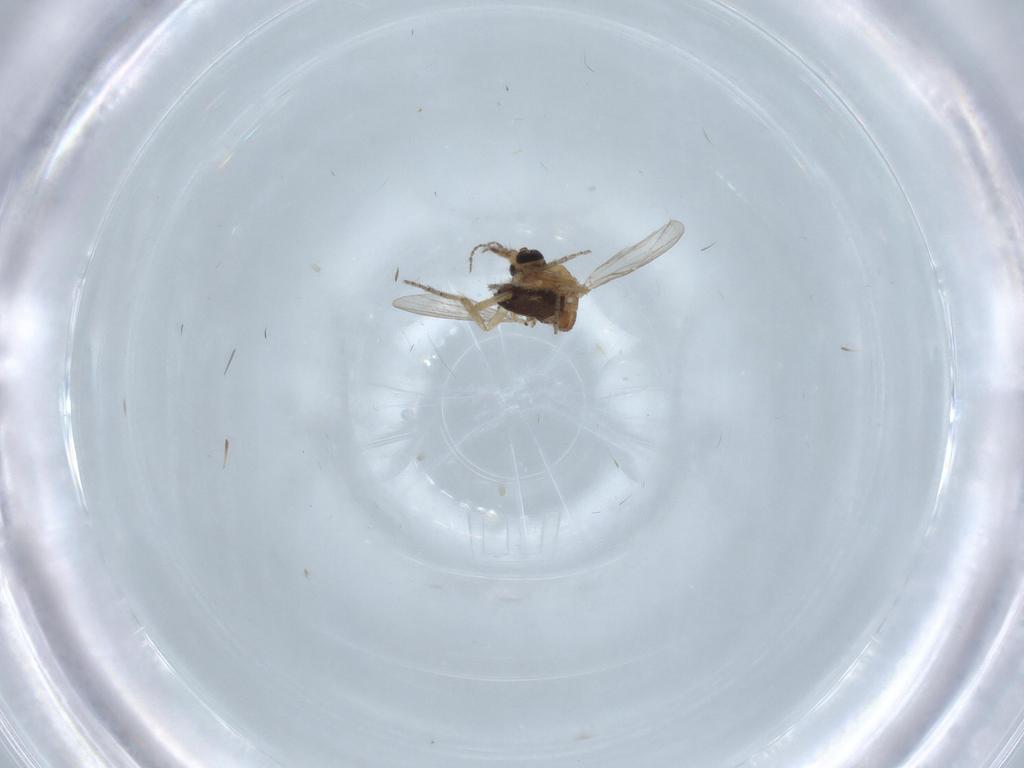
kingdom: Animalia
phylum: Arthropoda
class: Insecta
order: Diptera
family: Ceratopogonidae
